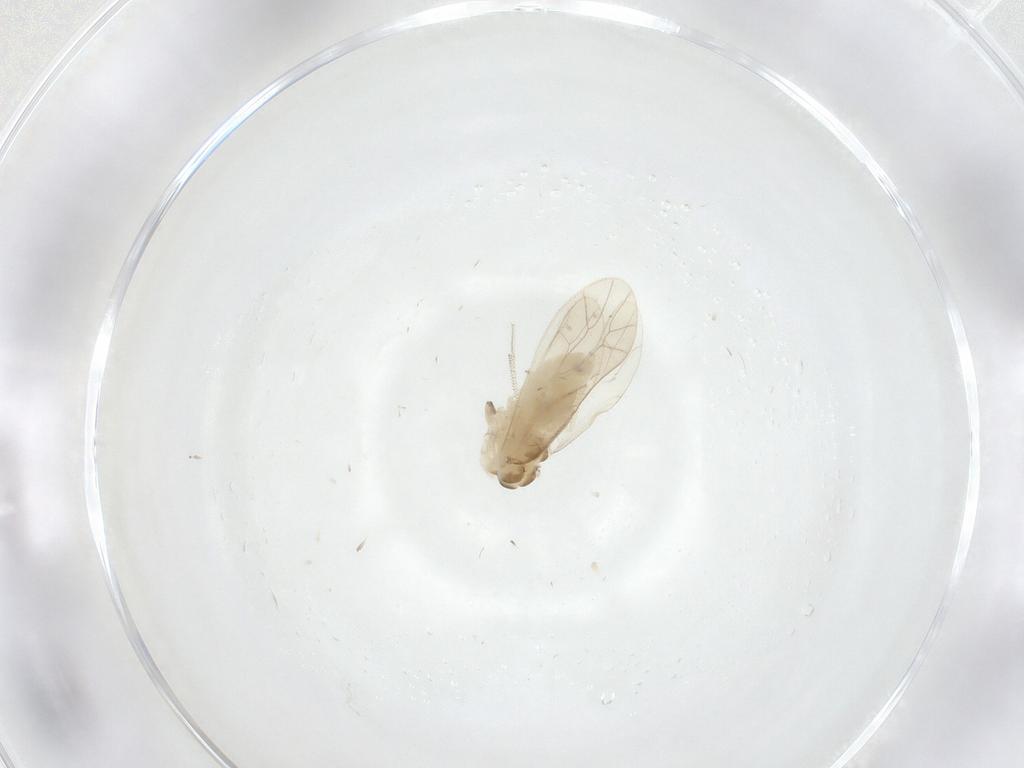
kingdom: Animalia
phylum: Arthropoda
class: Insecta
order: Psocodea
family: Caeciliusidae
